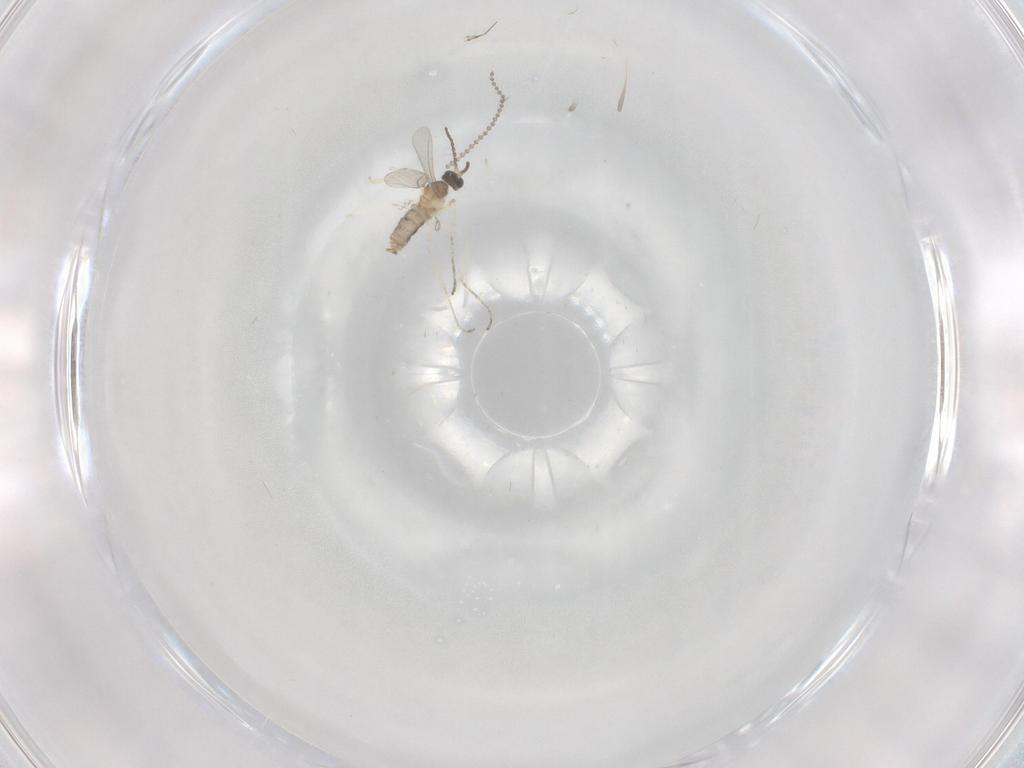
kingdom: Animalia
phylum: Arthropoda
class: Insecta
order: Diptera
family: Cecidomyiidae
